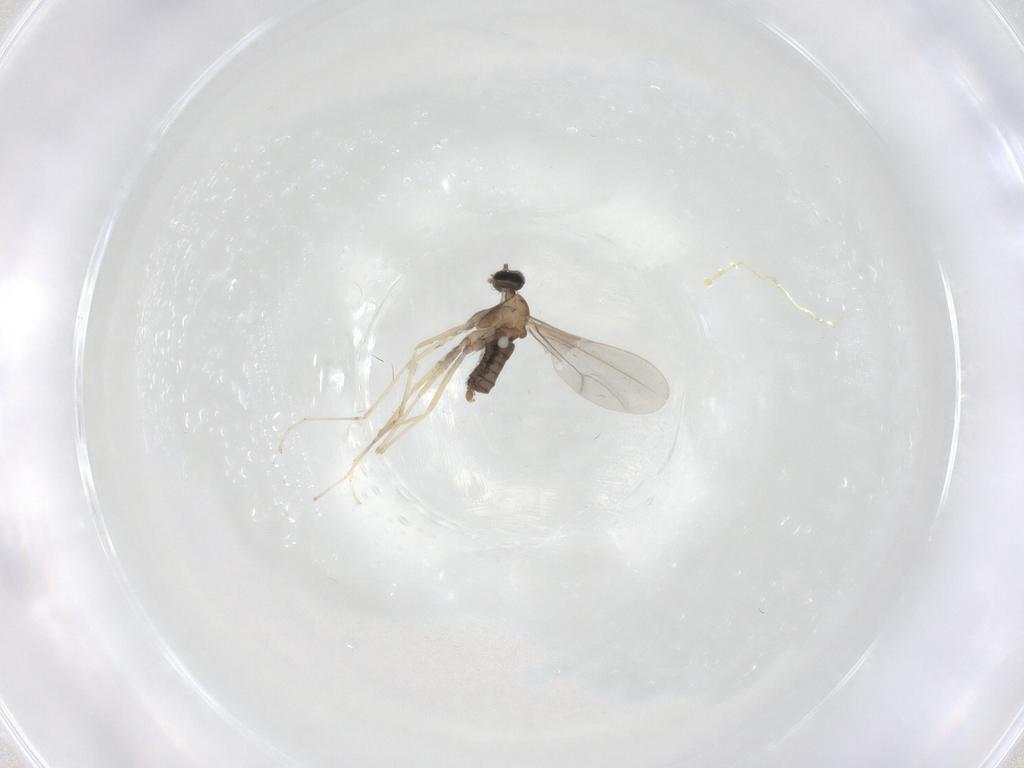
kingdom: Animalia
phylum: Arthropoda
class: Insecta
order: Diptera
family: Cecidomyiidae
